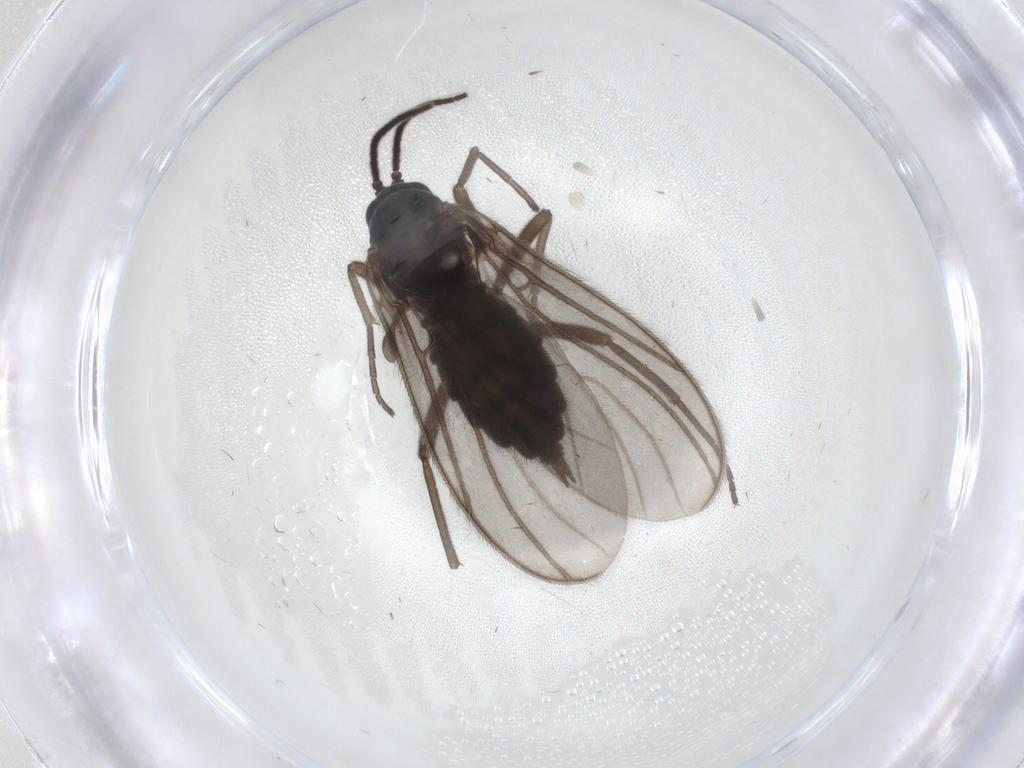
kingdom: Animalia
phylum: Arthropoda
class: Insecta
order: Diptera
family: Sciaridae
